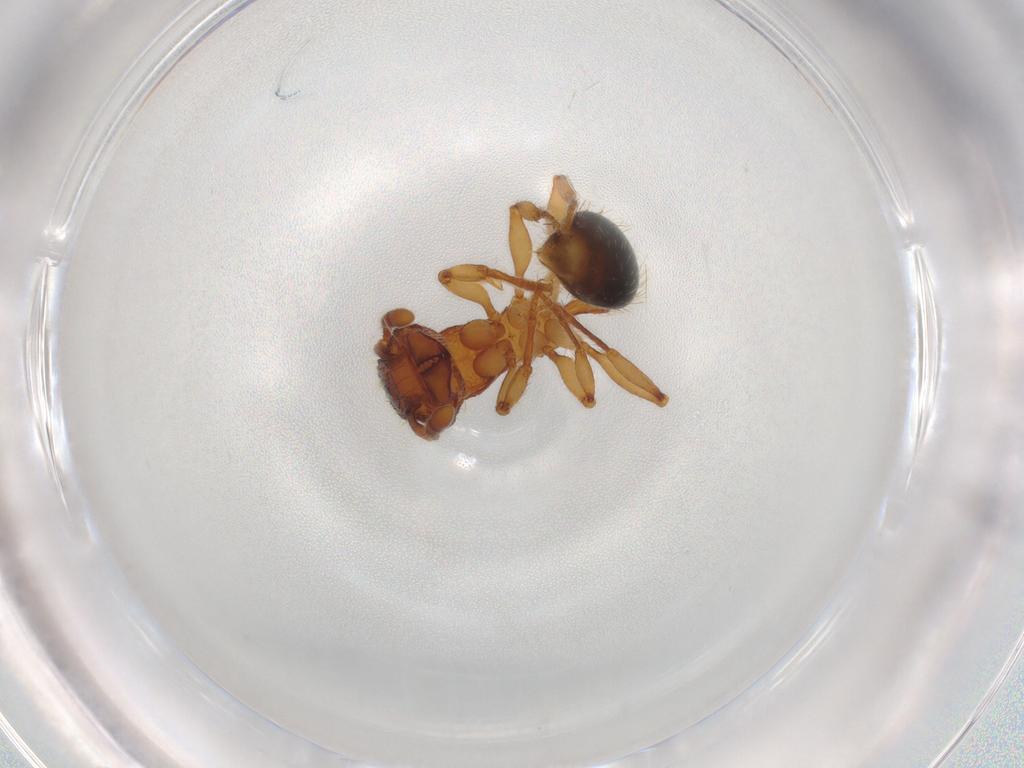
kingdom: Animalia
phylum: Arthropoda
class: Insecta
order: Hymenoptera
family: Formicidae
